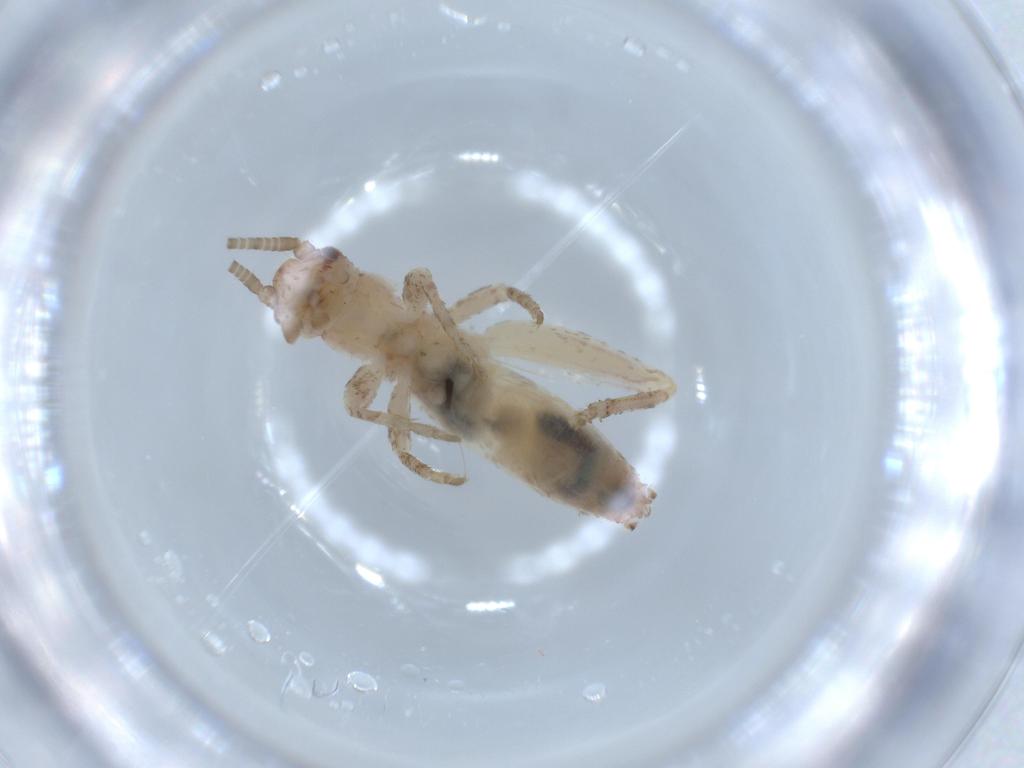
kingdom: Animalia
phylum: Arthropoda
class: Insecta
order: Orthoptera
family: Mogoplistidae
